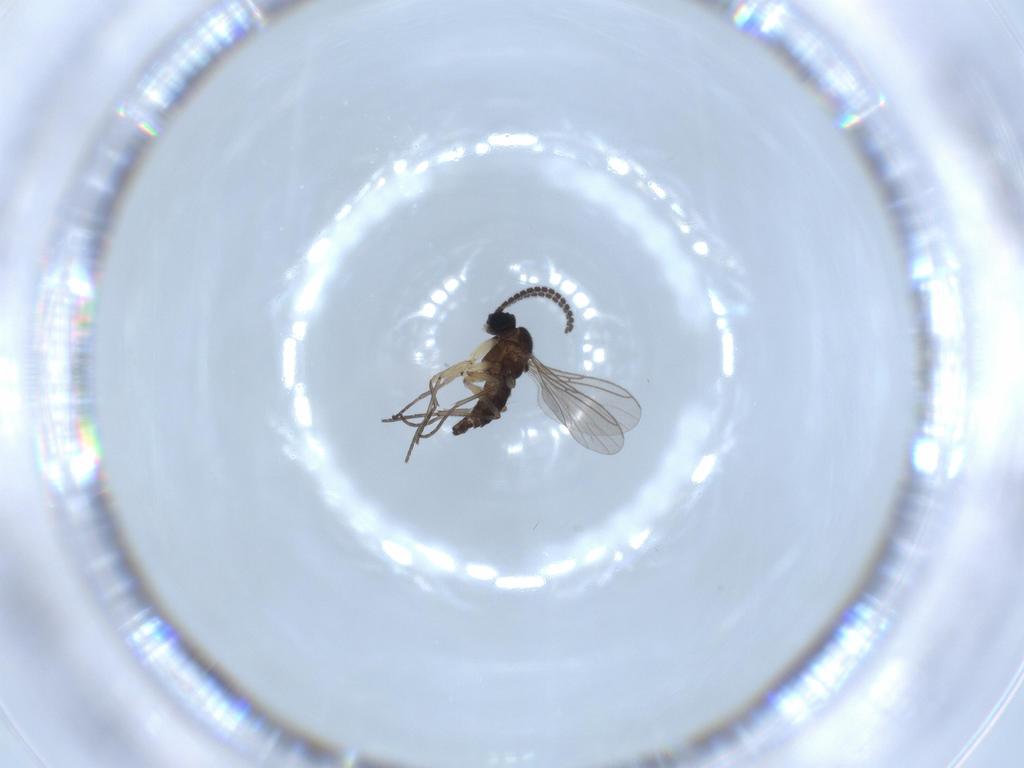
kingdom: Animalia
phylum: Arthropoda
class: Insecta
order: Diptera
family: Sciaridae
